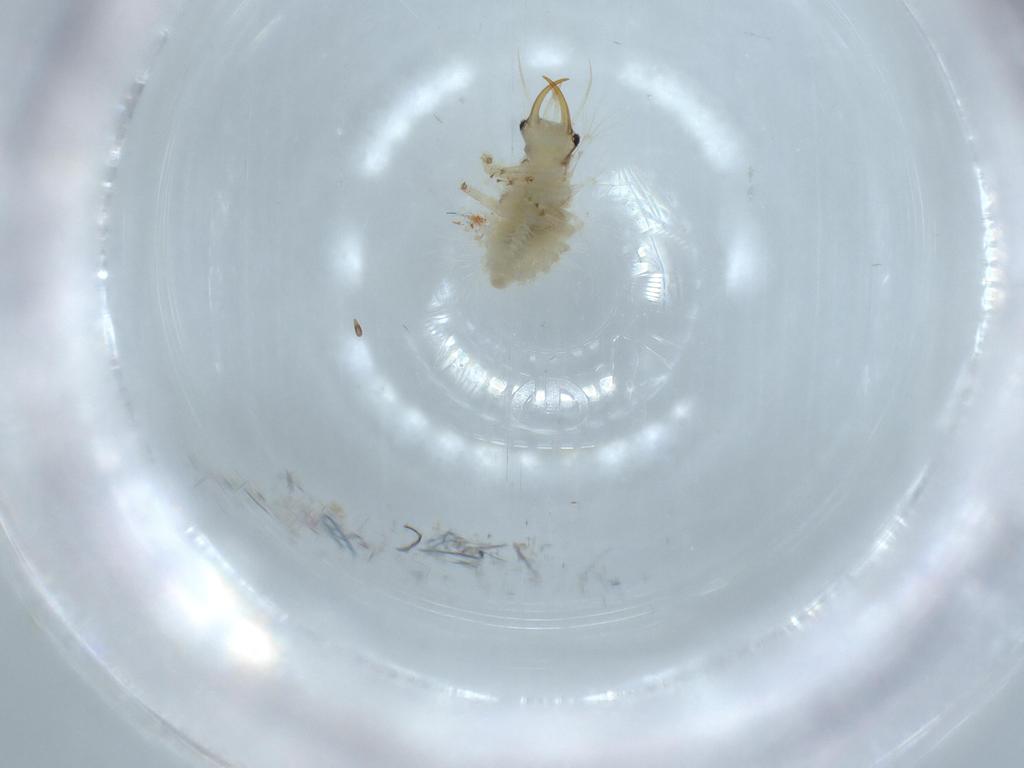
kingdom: Animalia
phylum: Arthropoda
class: Insecta
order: Neuroptera
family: Chrysopidae
